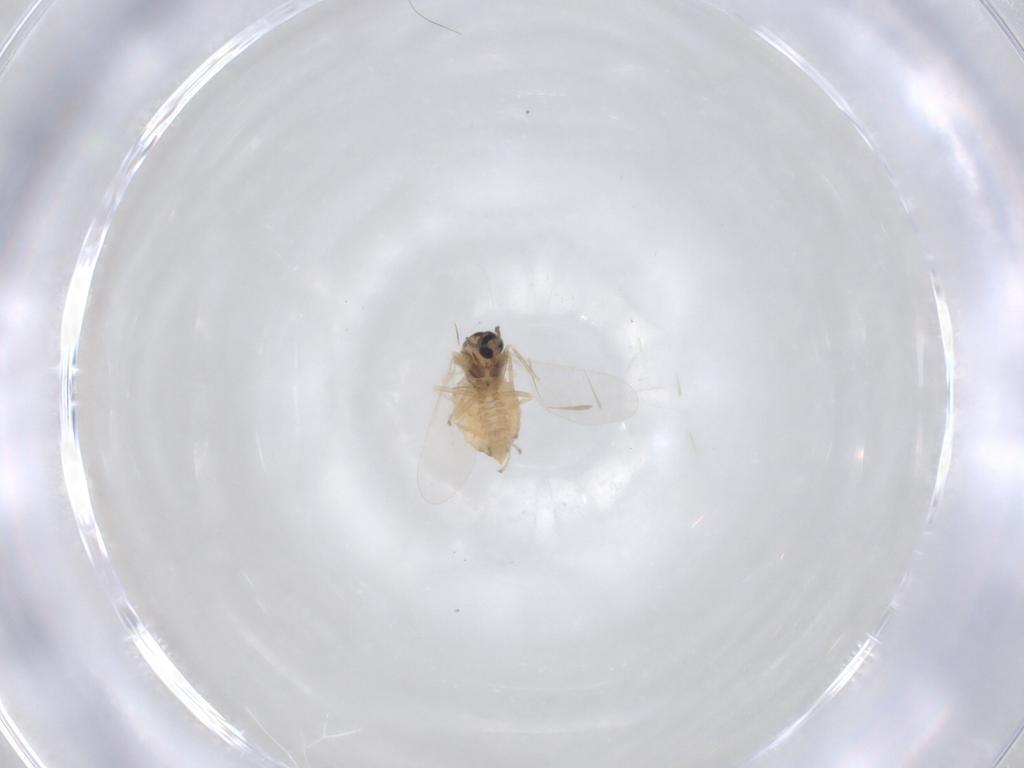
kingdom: Animalia
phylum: Arthropoda
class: Insecta
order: Diptera
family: Cecidomyiidae
